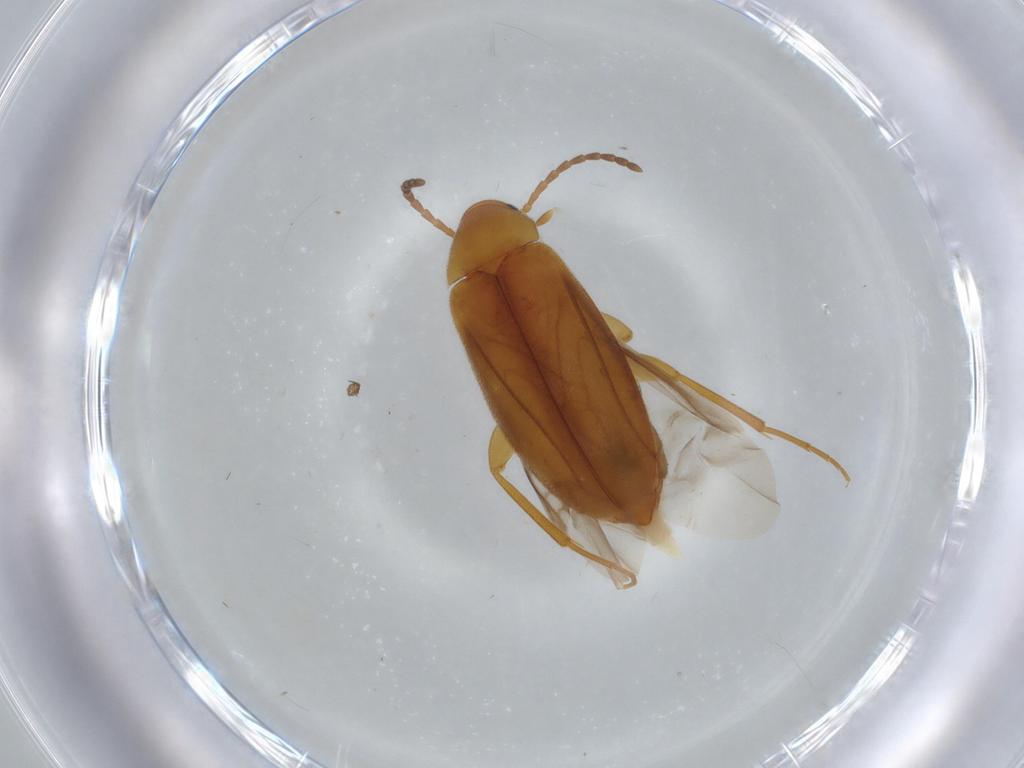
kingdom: Animalia
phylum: Arthropoda
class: Insecta
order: Coleoptera
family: Scraptiidae
